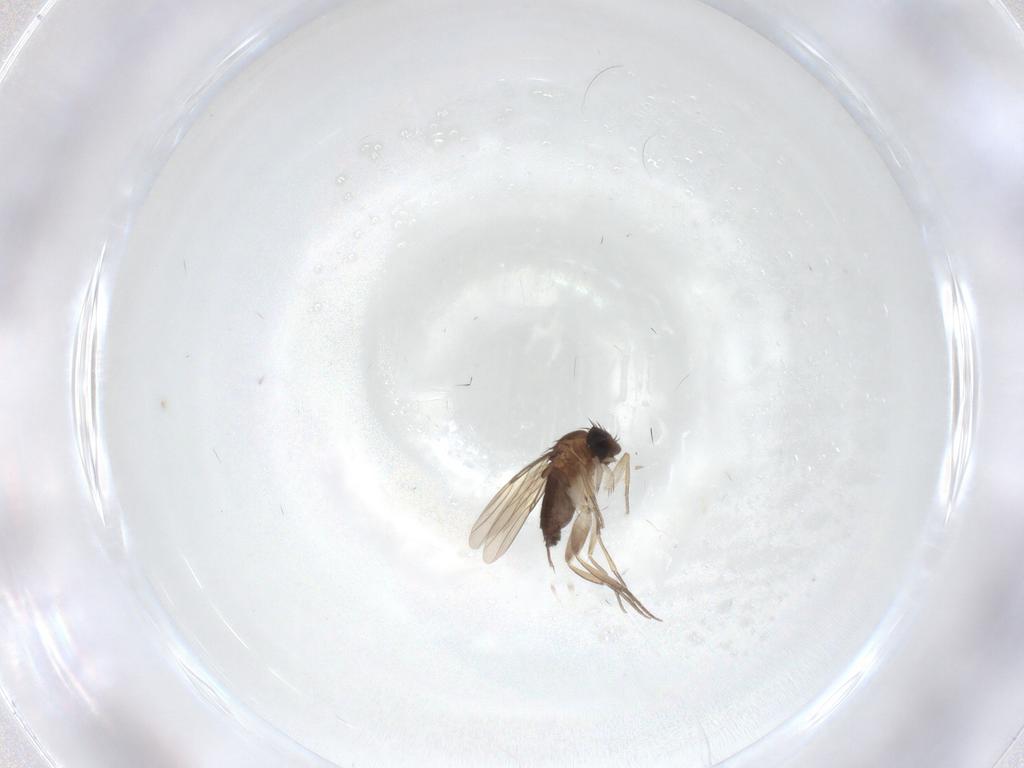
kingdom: Animalia
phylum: Arthropoda
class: Insecta
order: Diptera
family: Phoridae
